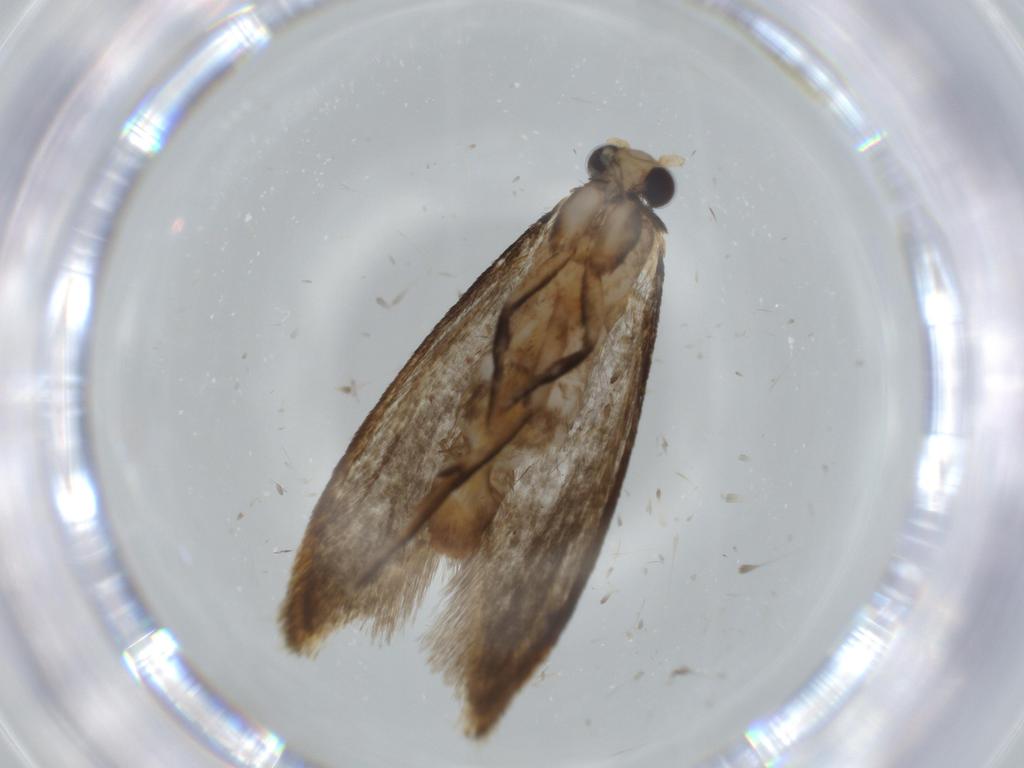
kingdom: Animalia
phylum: Arthropoda
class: Insecta
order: Lepidoptera
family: Tineidae
